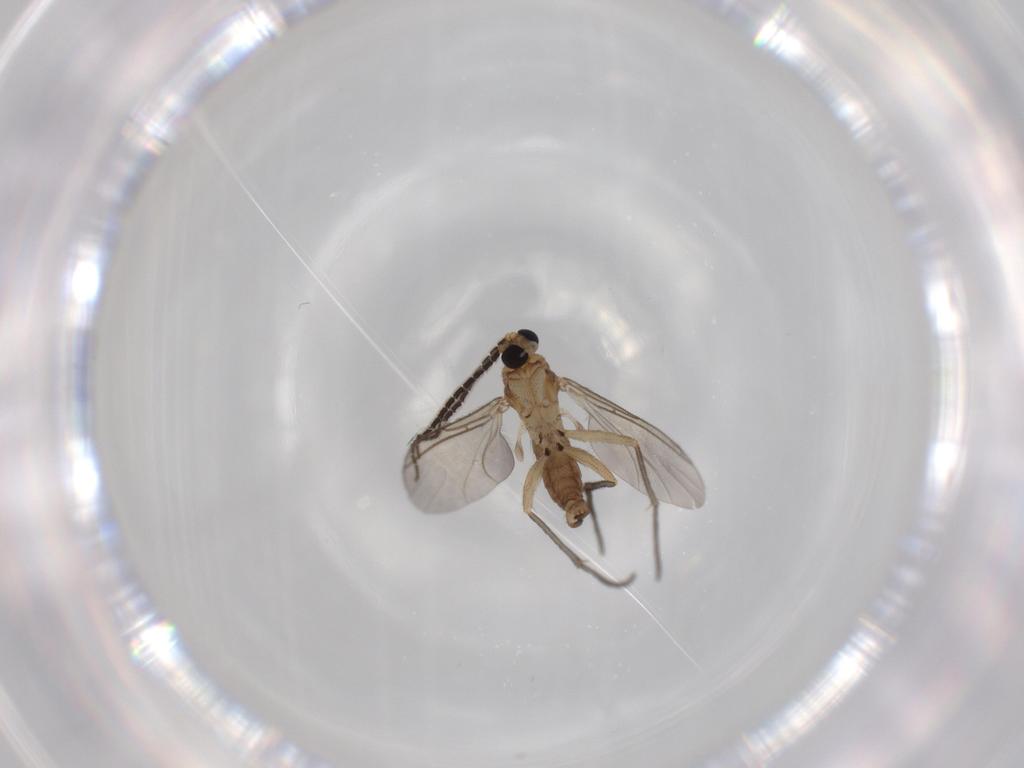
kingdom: Animalia
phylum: Arthropoda
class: Insecta
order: Diptera
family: Sciaridae
